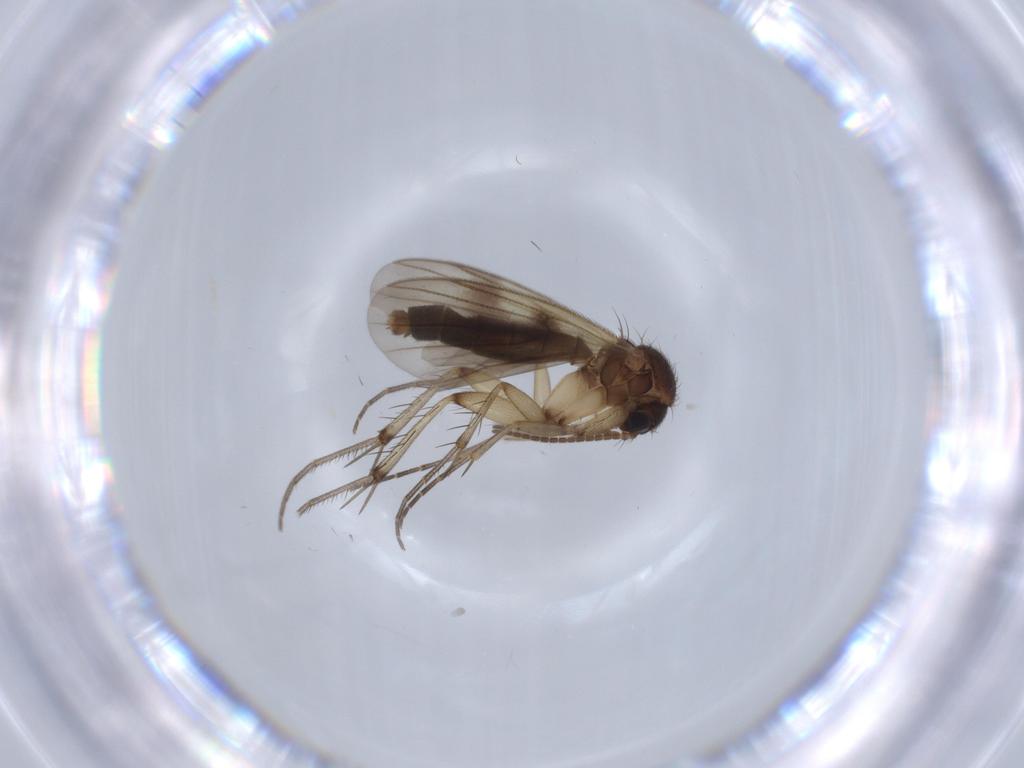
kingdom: Animalia
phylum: Arthropoda
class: Insecta
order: Diptera
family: Chironomidae
